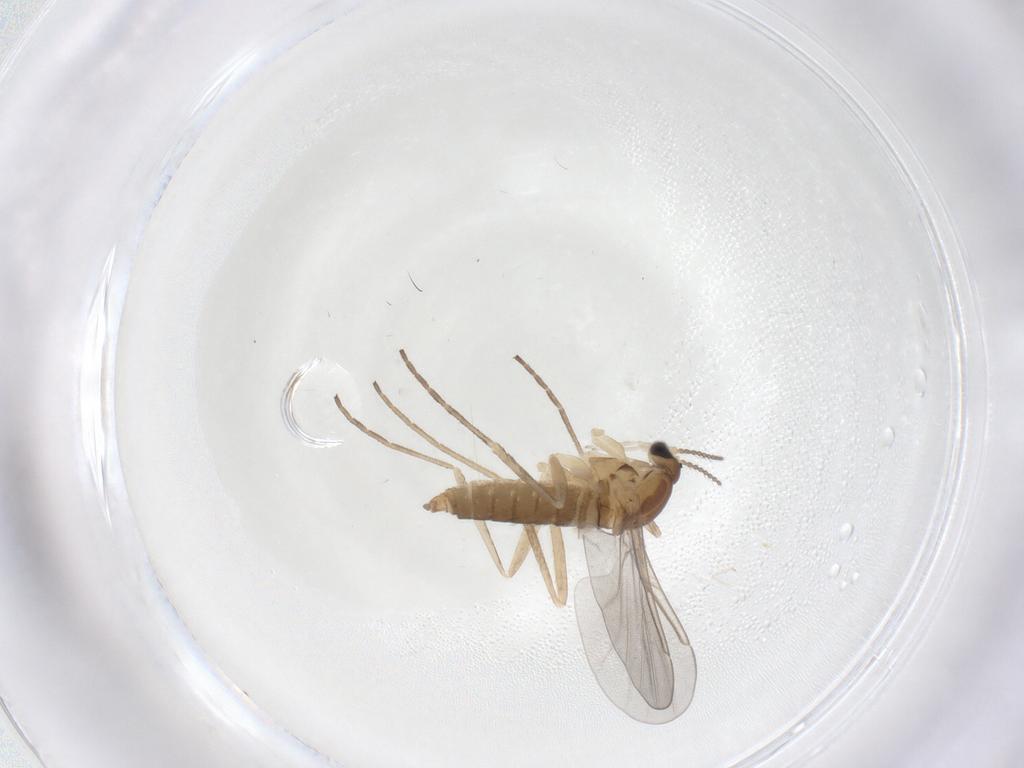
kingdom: Animalia
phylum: Arthropoda
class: Insecta
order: Diptera
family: Cecidomyiidae
